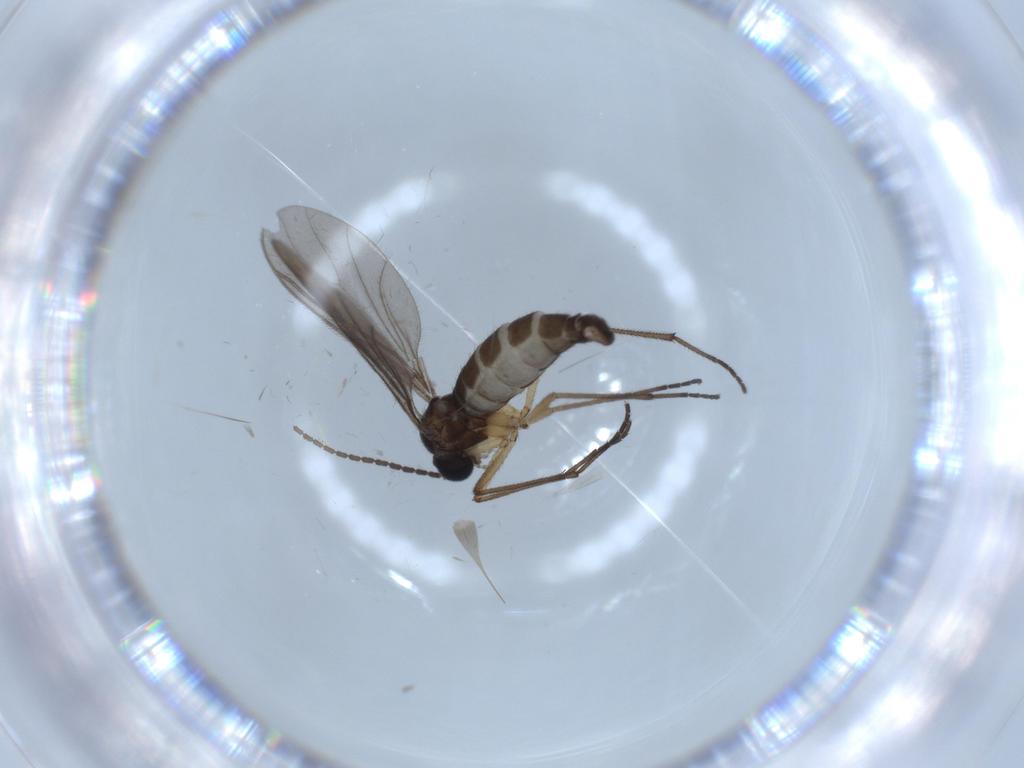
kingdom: Animalia
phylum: Arthropoda
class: Insecta
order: Diptera
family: Sciaridae
